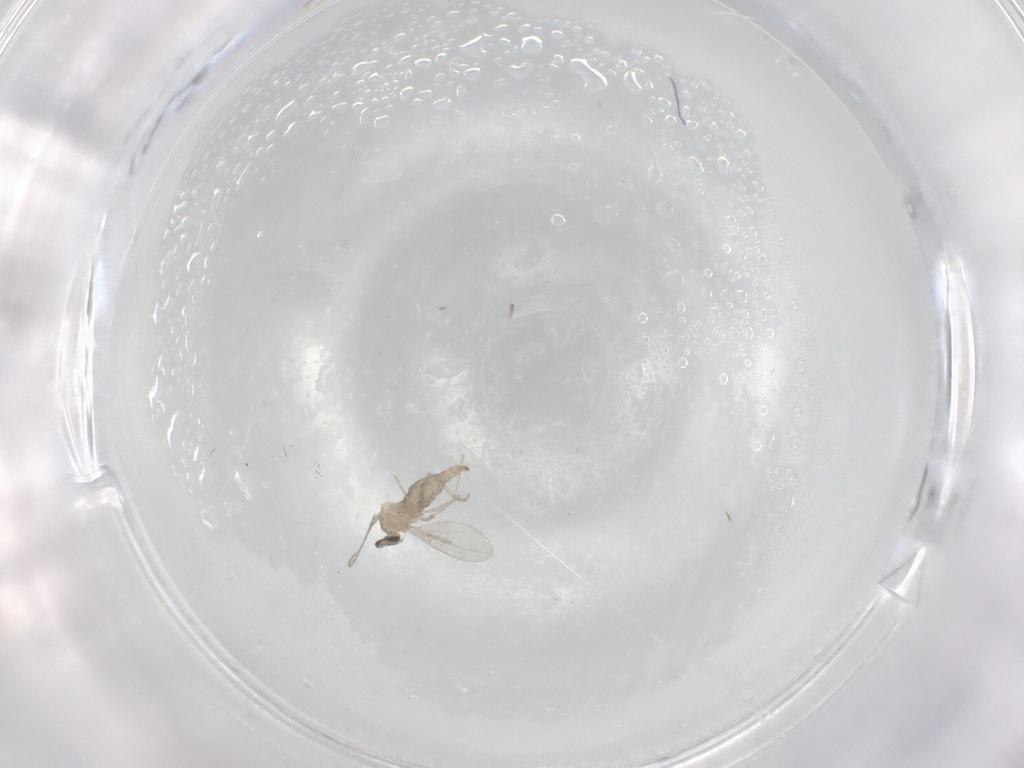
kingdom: Animalia
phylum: Arthropoda
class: Insecta
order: Diptera
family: Cecidomyiidae
